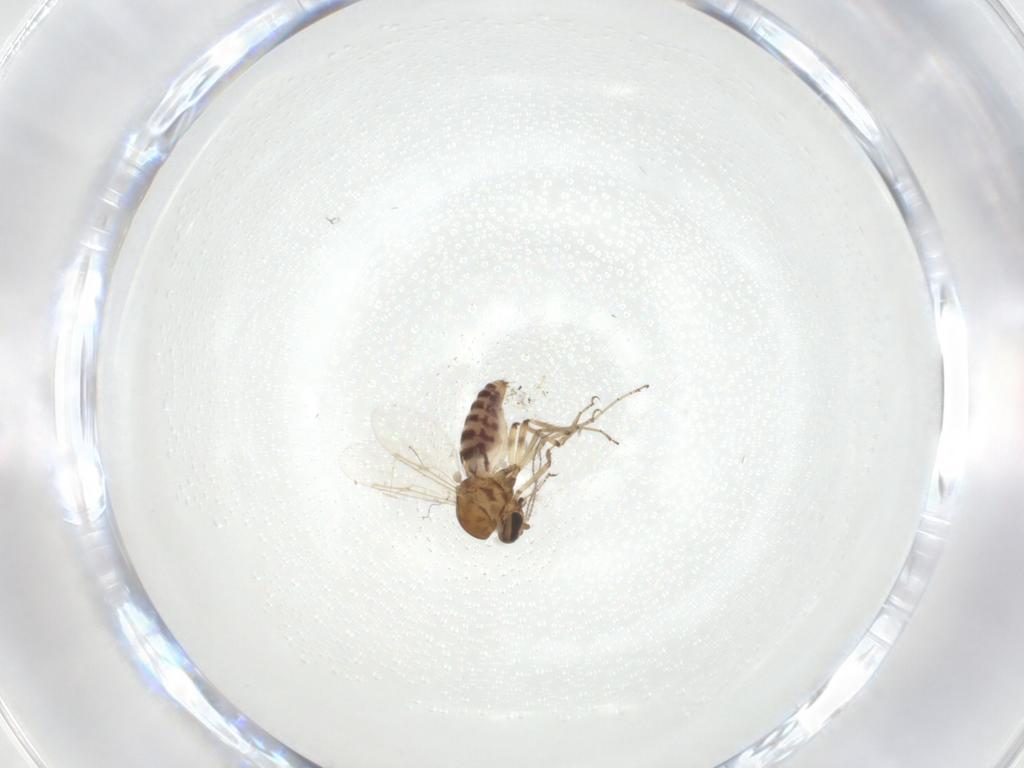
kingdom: Animalia
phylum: Arthropoda
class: Insecta
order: Diptera
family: Ceratopogonidae
